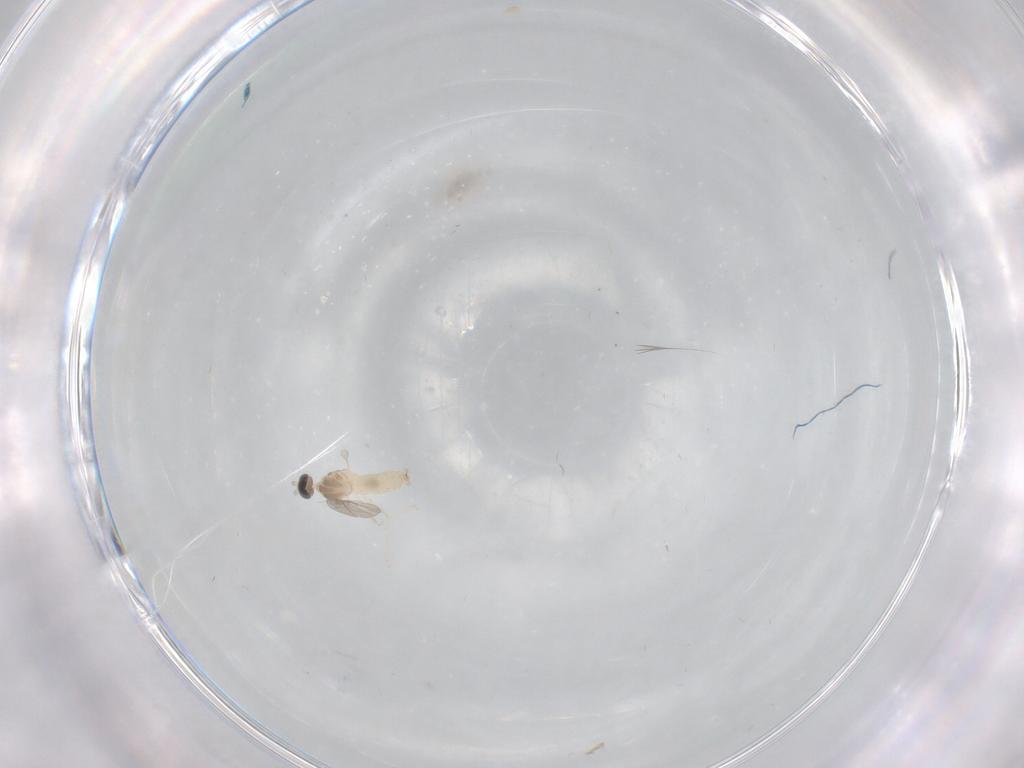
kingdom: Animalia
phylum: Arthropoda
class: Insecta
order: Diptera
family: Cecidomyiidae
